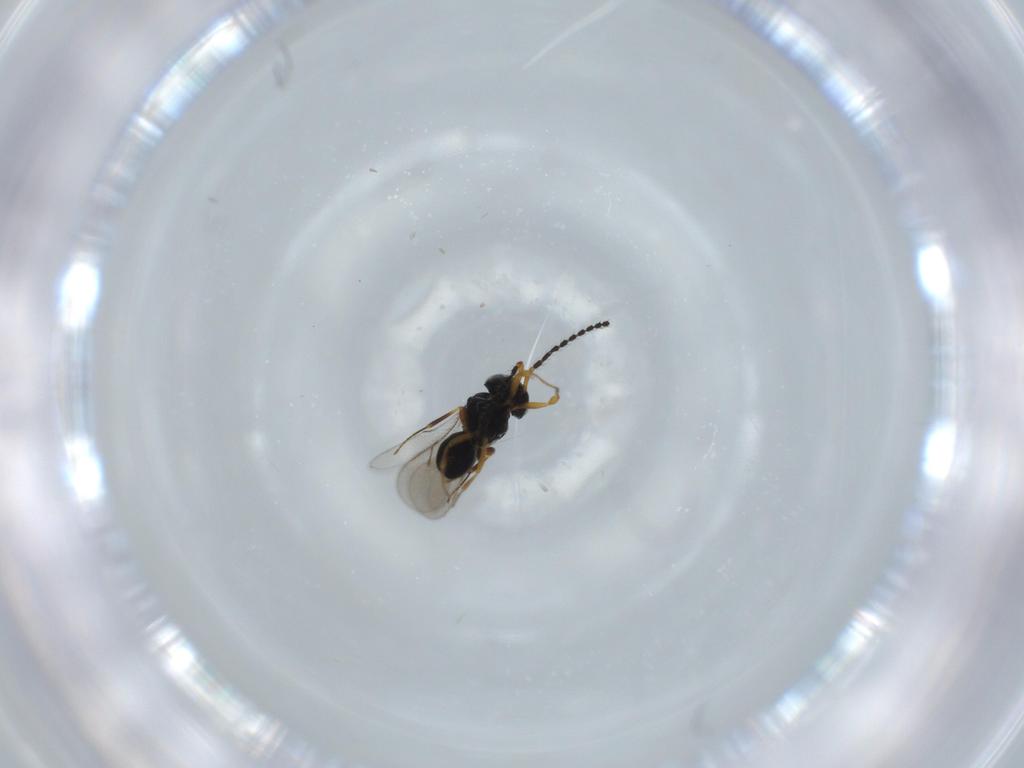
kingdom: Animalia
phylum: Arthropoda
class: Insecta
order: Hymenoptera
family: Scelionidae
